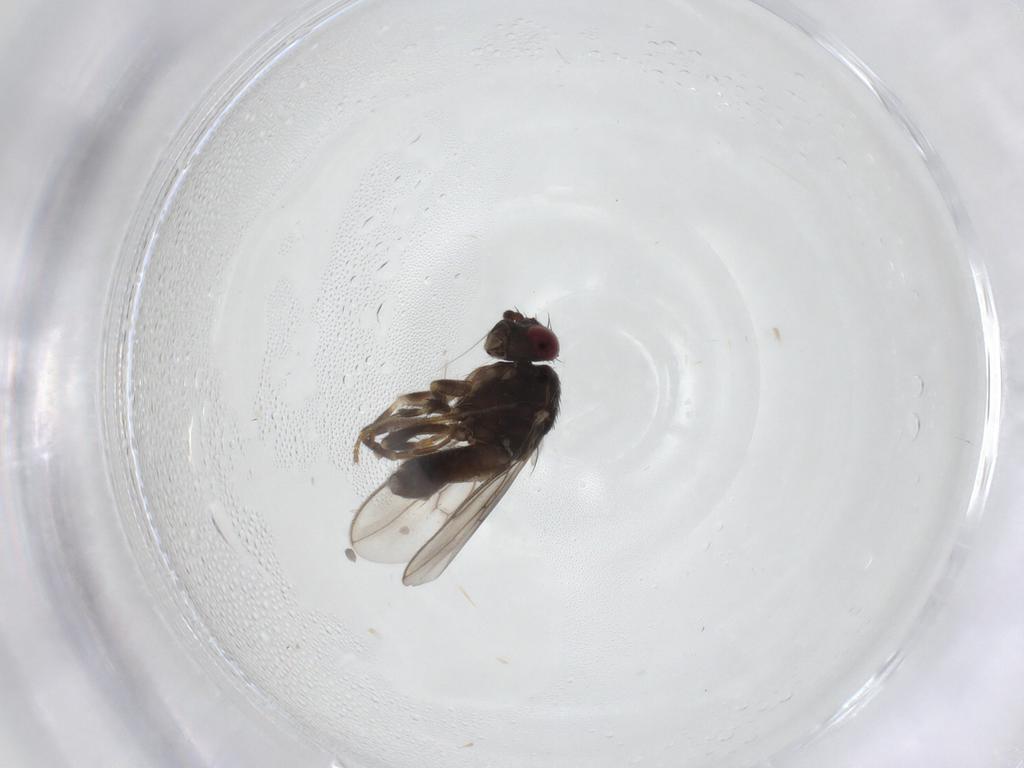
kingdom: Animalia
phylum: Arthropoda
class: Insecta
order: Diptera
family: Sphaeroceridae
